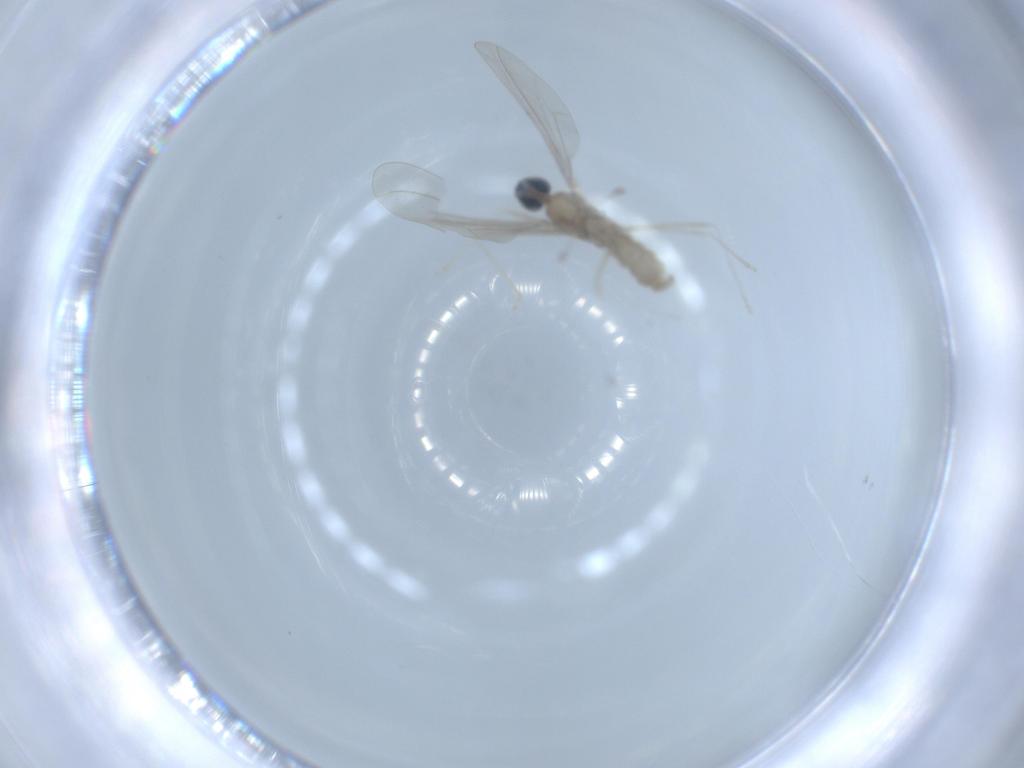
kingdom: Animalia
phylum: Arthropoda
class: Insecta
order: Diptera
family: Cecidomyiidae
